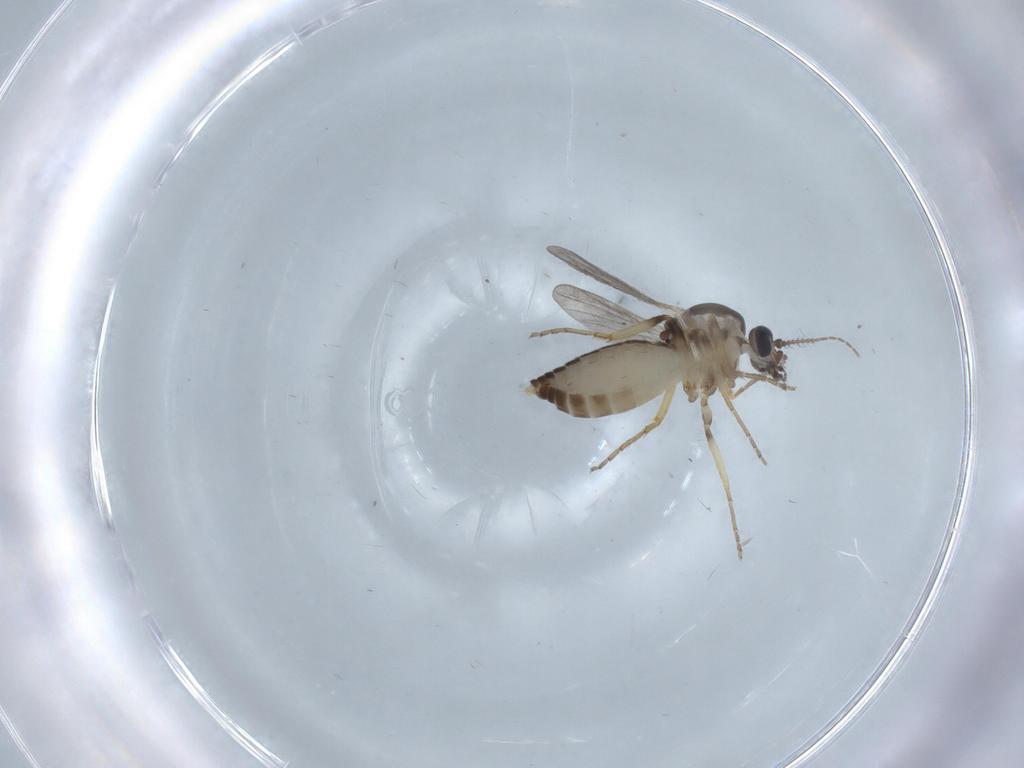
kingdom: Animalia
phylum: Arthropoda
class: Insecta
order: Diptera
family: Ceratopogonidae
